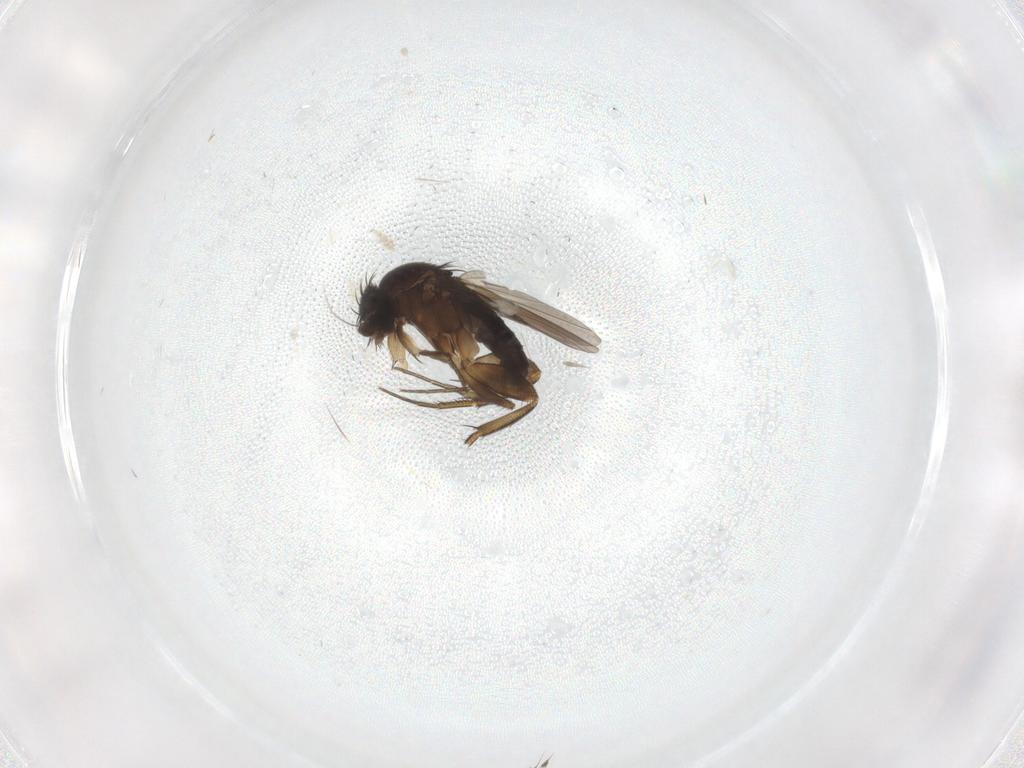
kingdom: Animalia
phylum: Arthropoda
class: Insecta
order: Diptera
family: Phoridae
